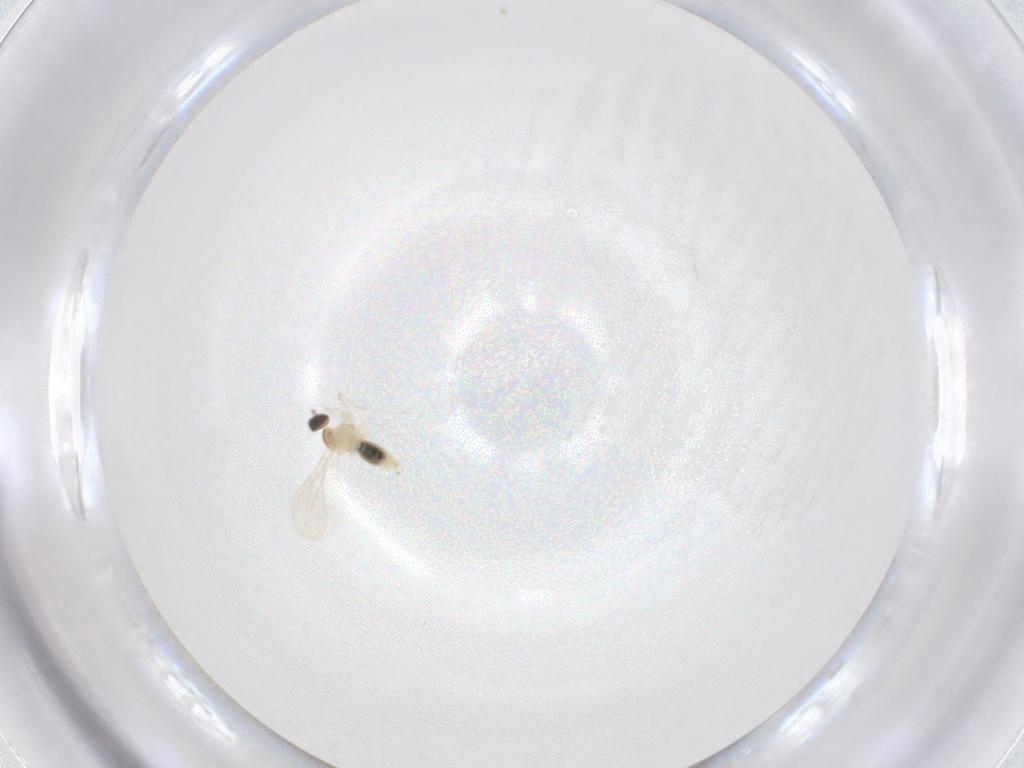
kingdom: Animalia
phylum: Arthropoda
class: Insecta
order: Diptera
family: Cecidomyiidae
